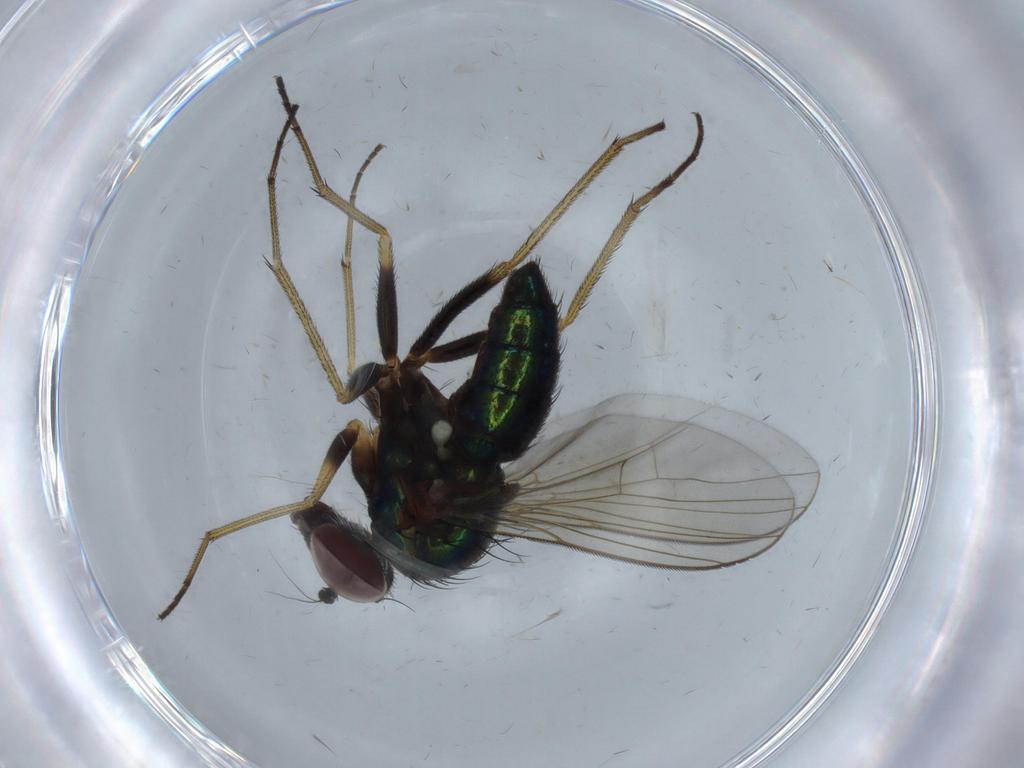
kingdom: Animalia
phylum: Arthropoda
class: Insecta
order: Diptera
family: Dolichopodidae
